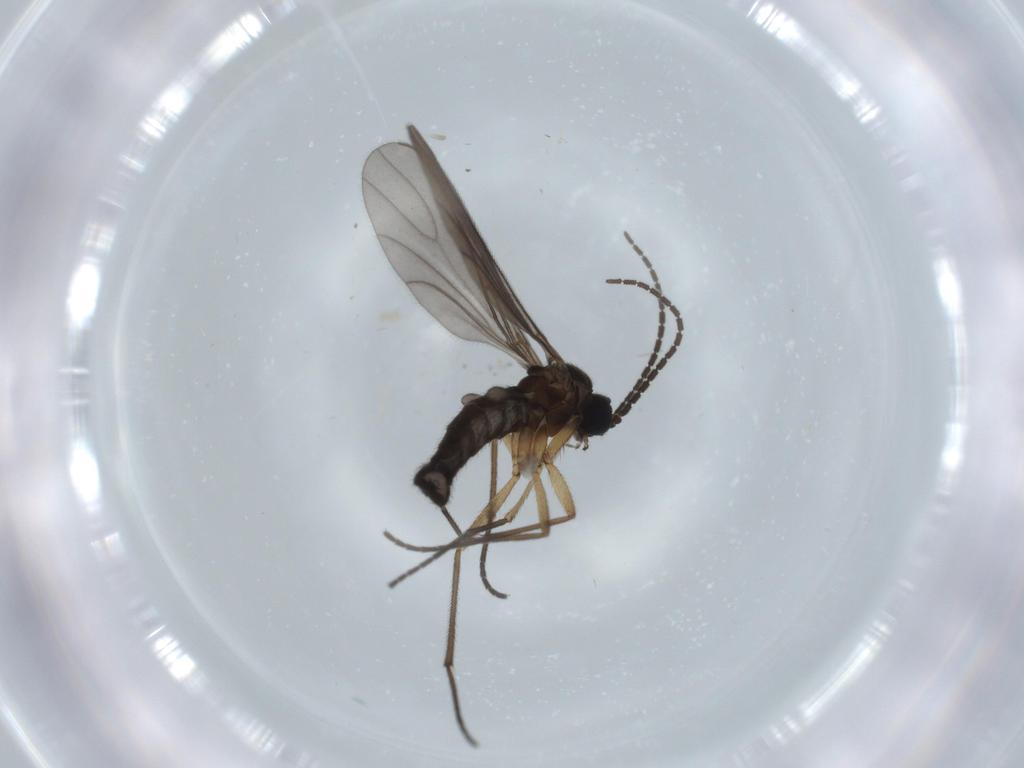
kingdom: Animalia
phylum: Arthropoda
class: Insecta
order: Diptera
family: Sciaridae
